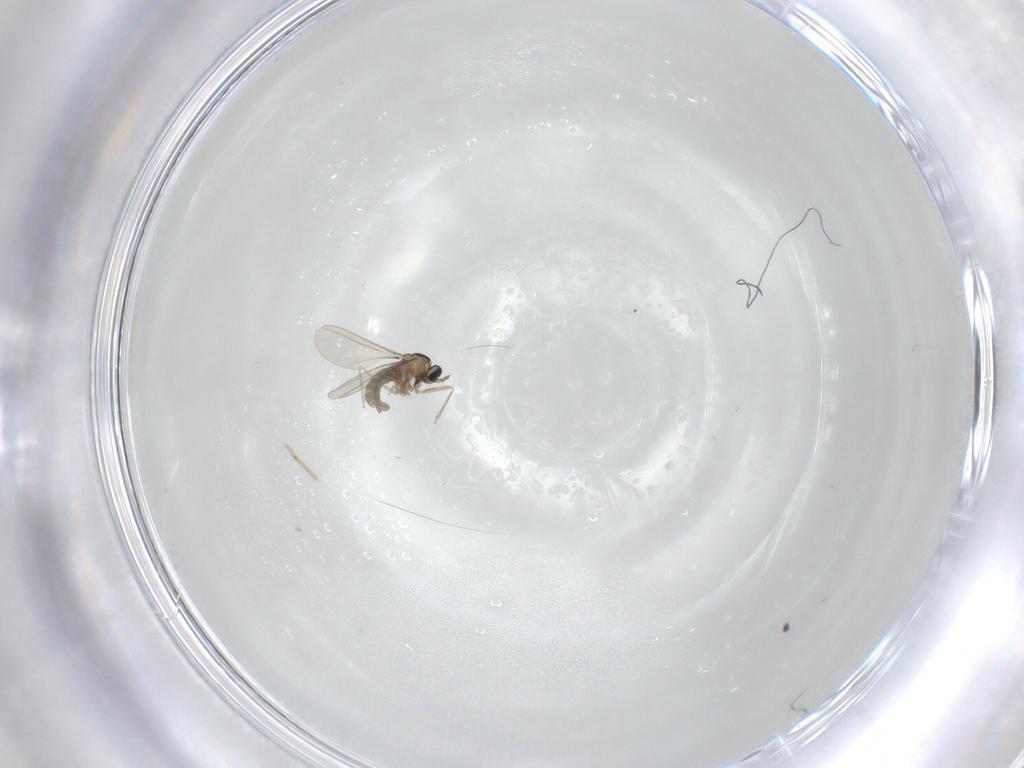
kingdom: Animalia
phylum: Arthropoda
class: Insecta
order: Diptera
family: Cecidomyiidae
